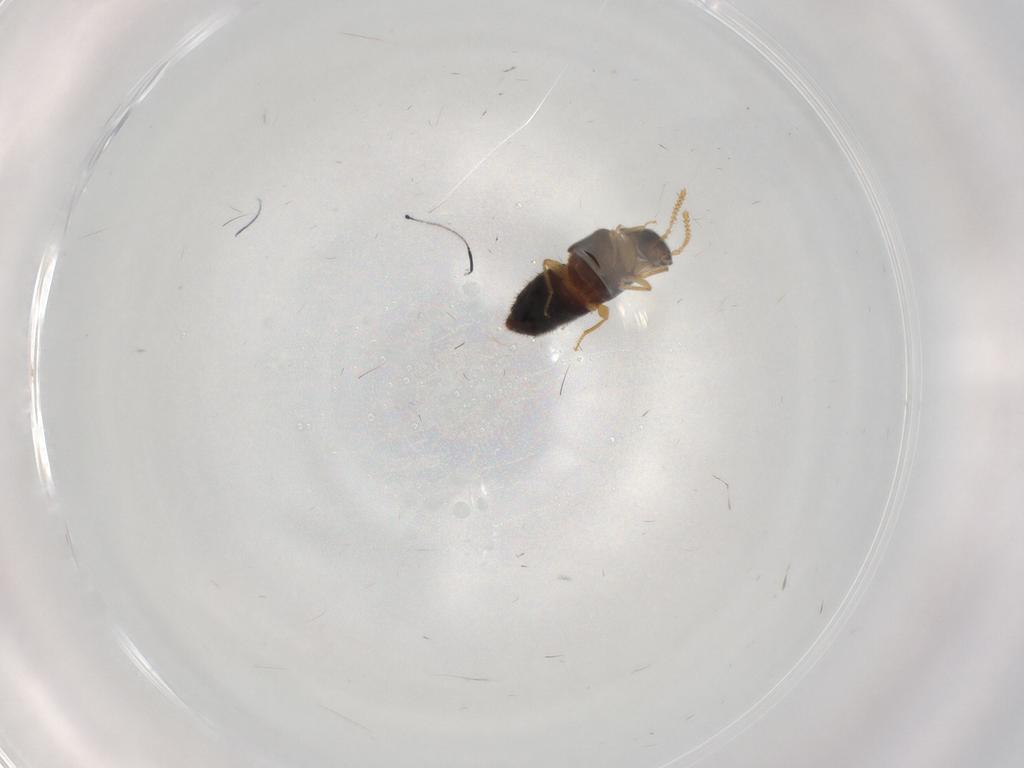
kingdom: Animalia
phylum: Arthropoda
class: Insecta
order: Coleoptera
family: Mordellidae
